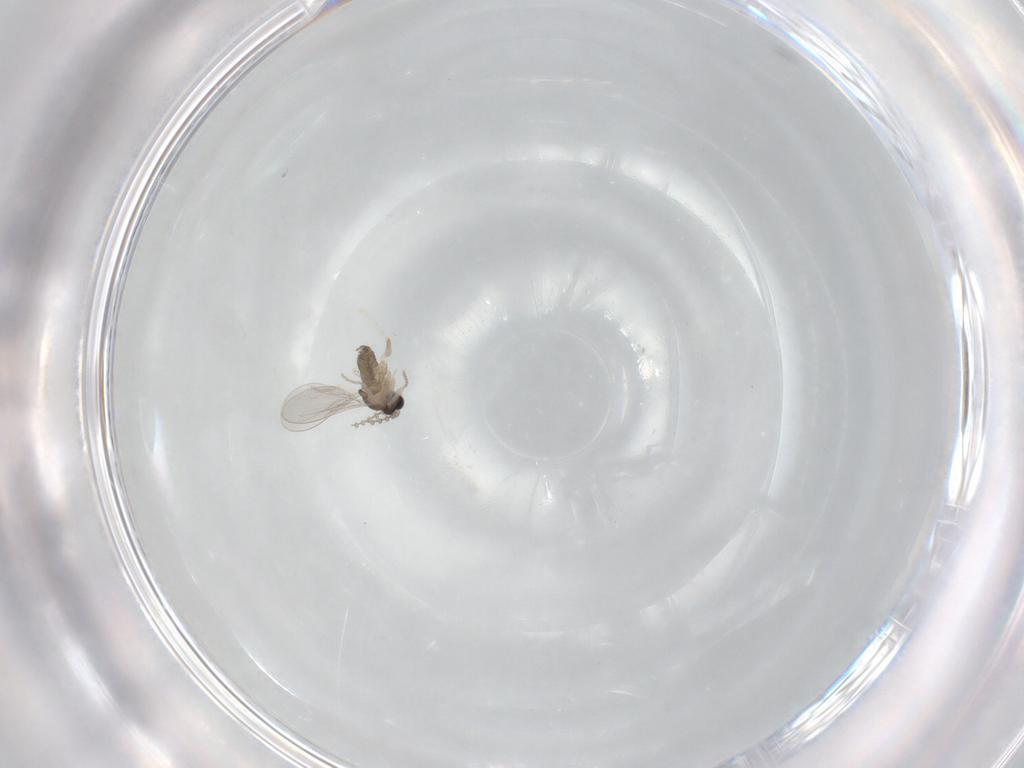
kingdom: Animalia
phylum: Arthropoda
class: Insecta
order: Diptera
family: Cecidomyiidae
